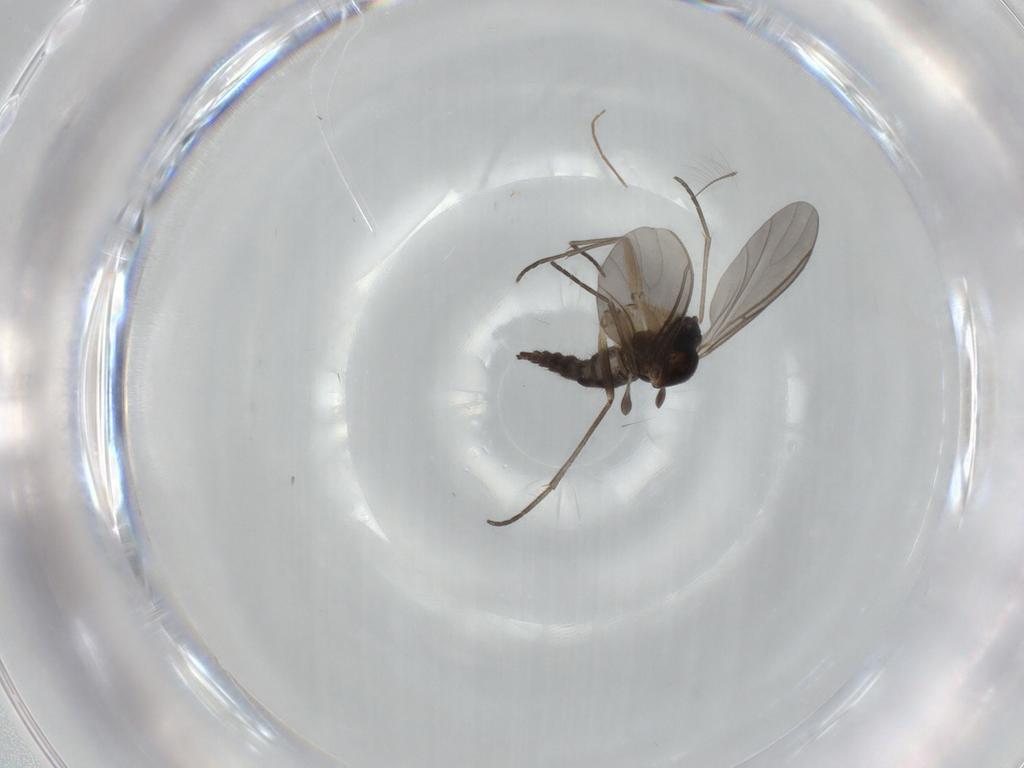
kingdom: Animalia
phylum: Arthropoda
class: Insecta
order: Diptera
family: Sciaridae
